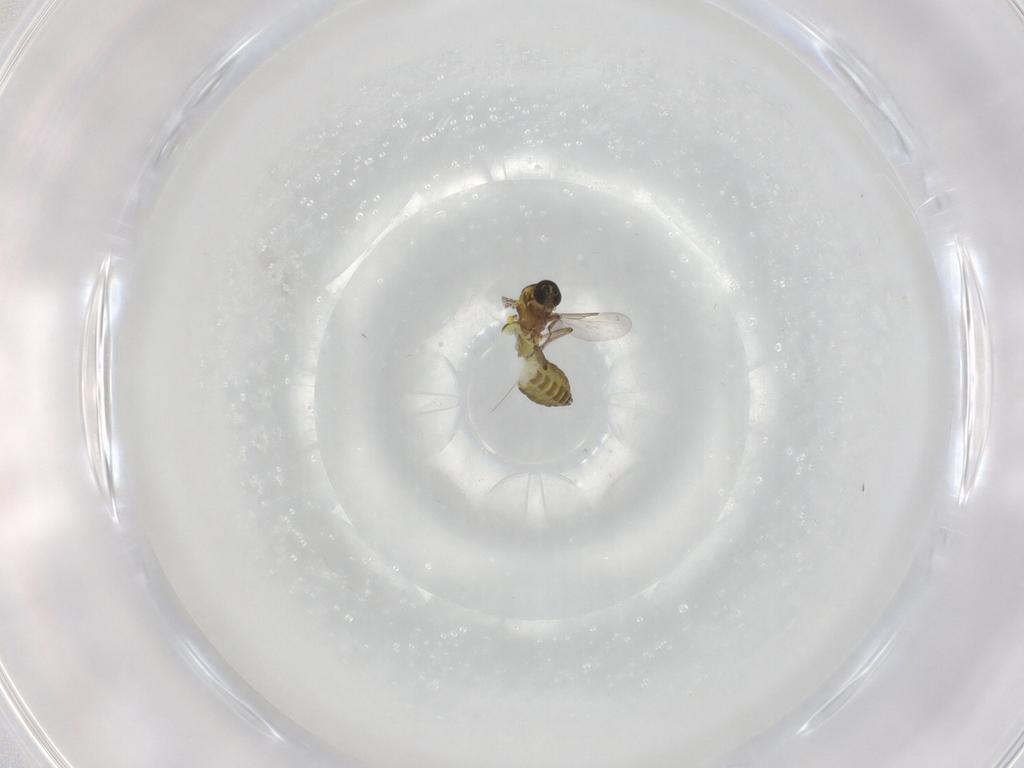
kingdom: Animalia
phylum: Arthropoda
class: Insecta
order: Diptera
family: Ceratopogonidae
